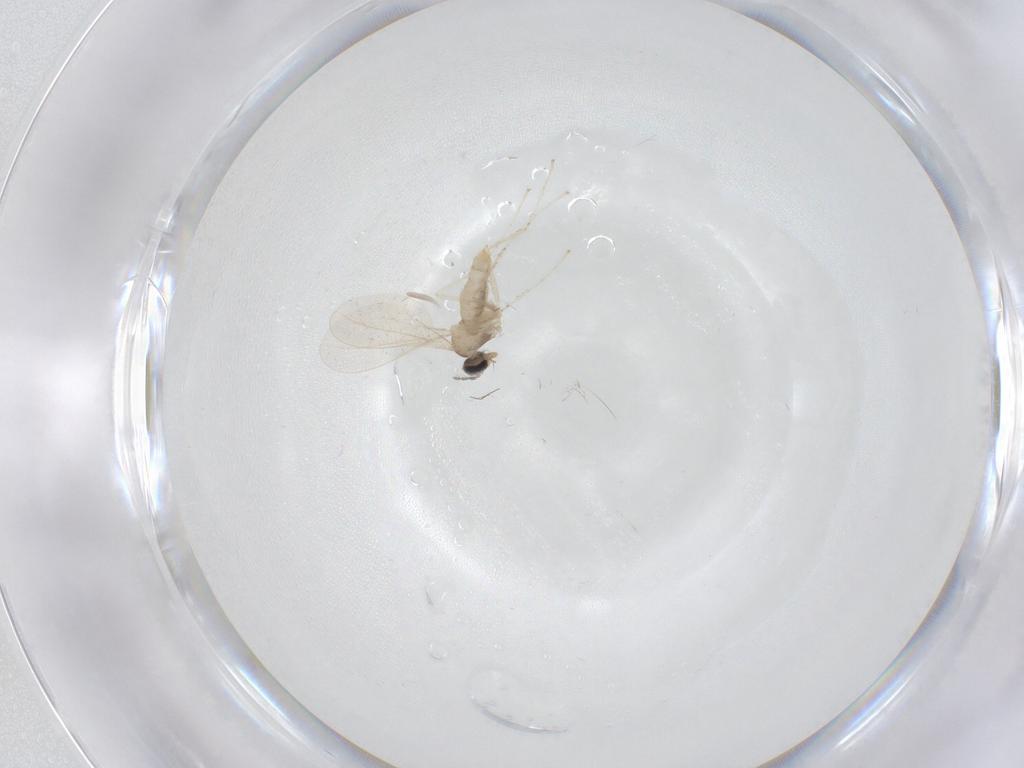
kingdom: Animalia
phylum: Arthropoda
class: Insecta
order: Diptera
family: Cecidomyiidae
